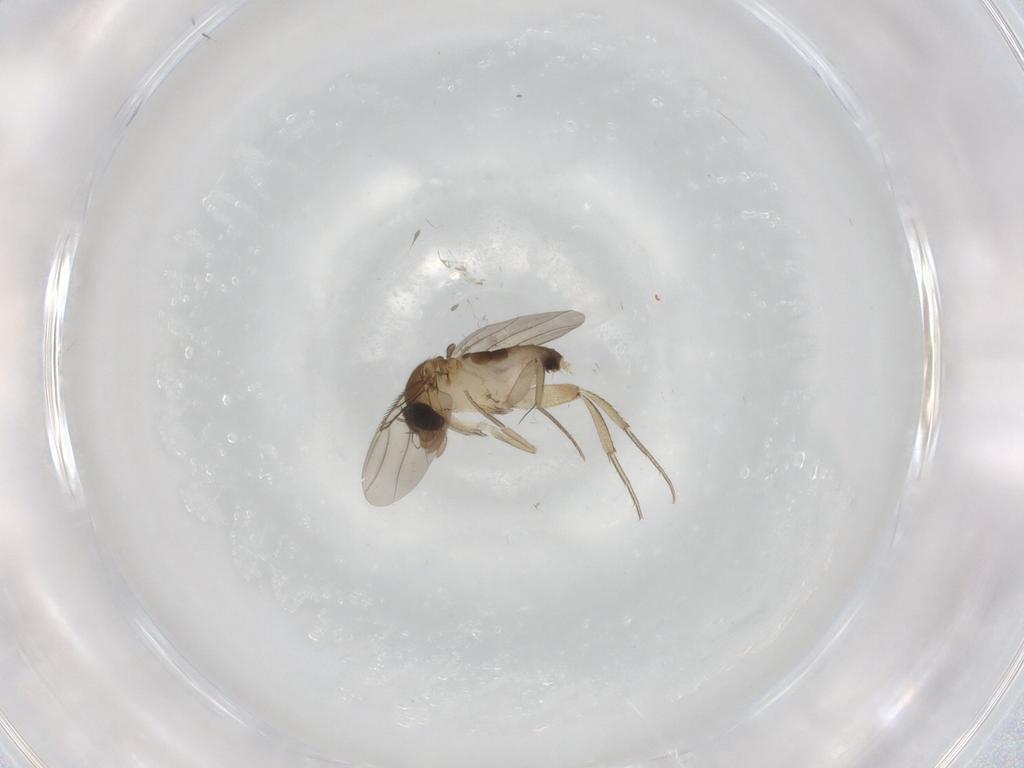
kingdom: Animalia
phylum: Arthropoda
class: Insecta
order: Diptera
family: Phoridae
